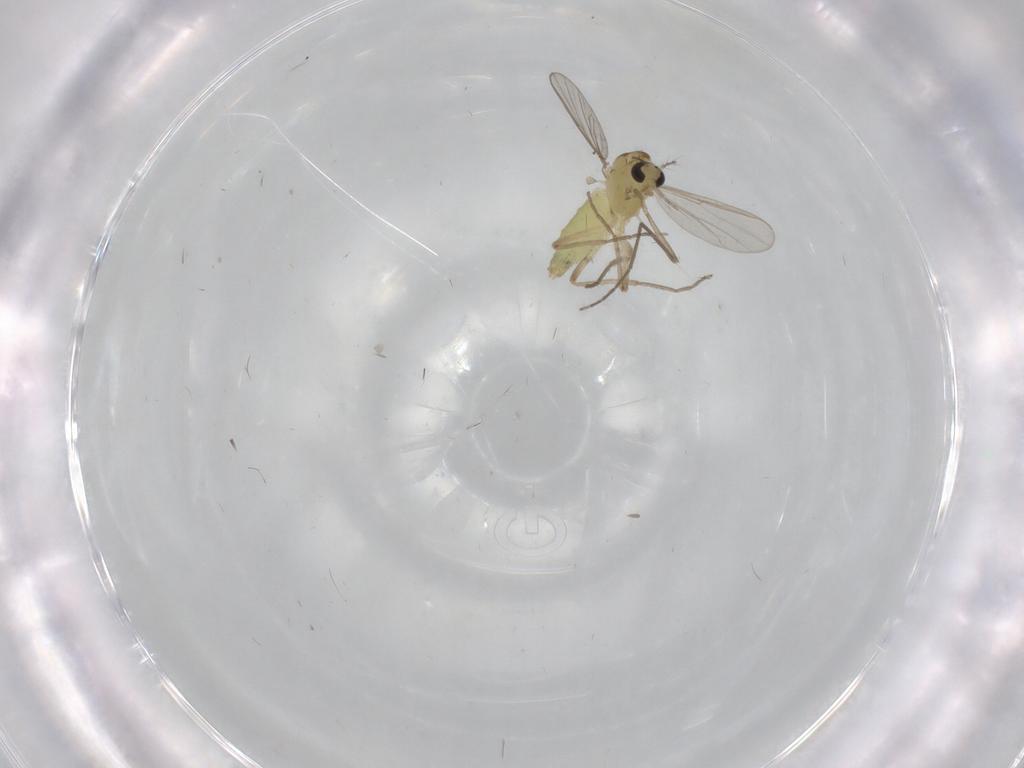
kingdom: Animalia
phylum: Arthropoda
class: Insecta
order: Diptera
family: Chironomidae
